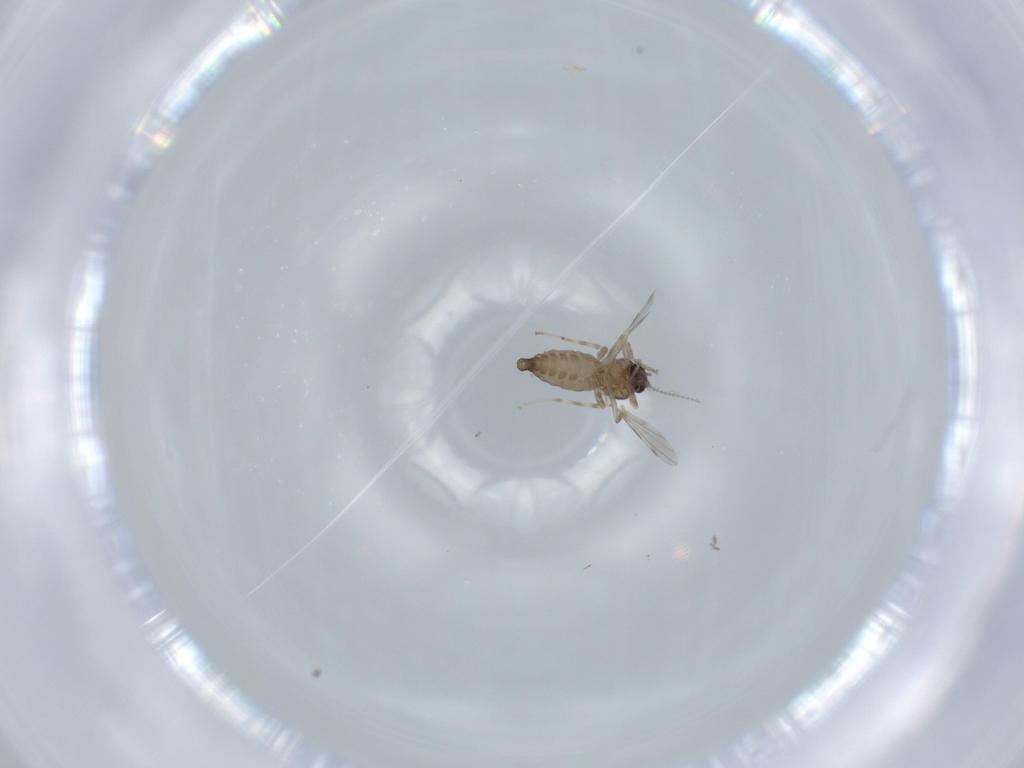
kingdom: Animalia
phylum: Arthropoda
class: Insecta
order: Diptera
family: Ceratopogonidae
